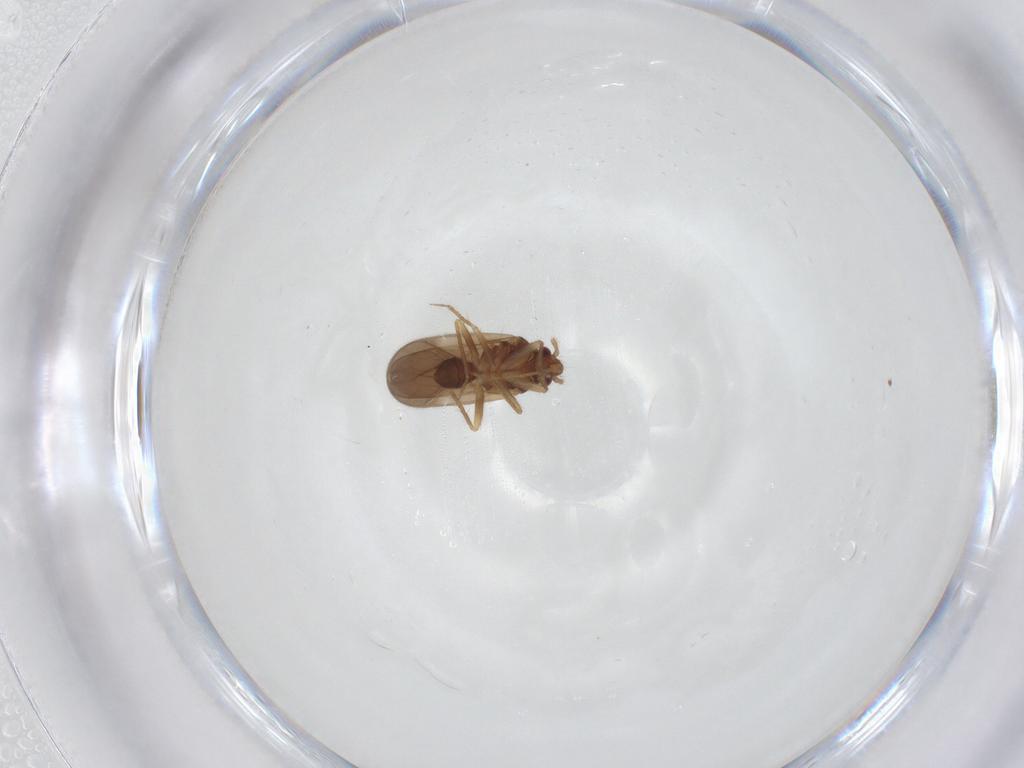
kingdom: Animalia
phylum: Arthropoda
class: Insecta
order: Hemiptera
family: Ceratocombidae
